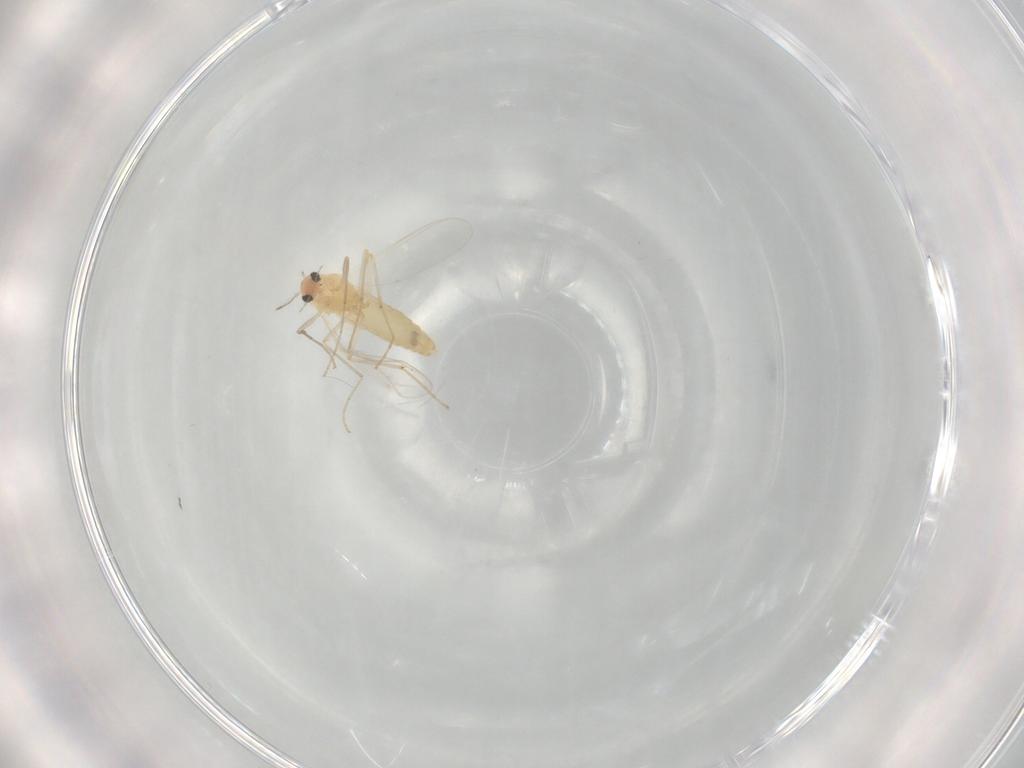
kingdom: Animalia
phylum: Arthropoda
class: Insecta
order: Diptera
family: Chironomidae
